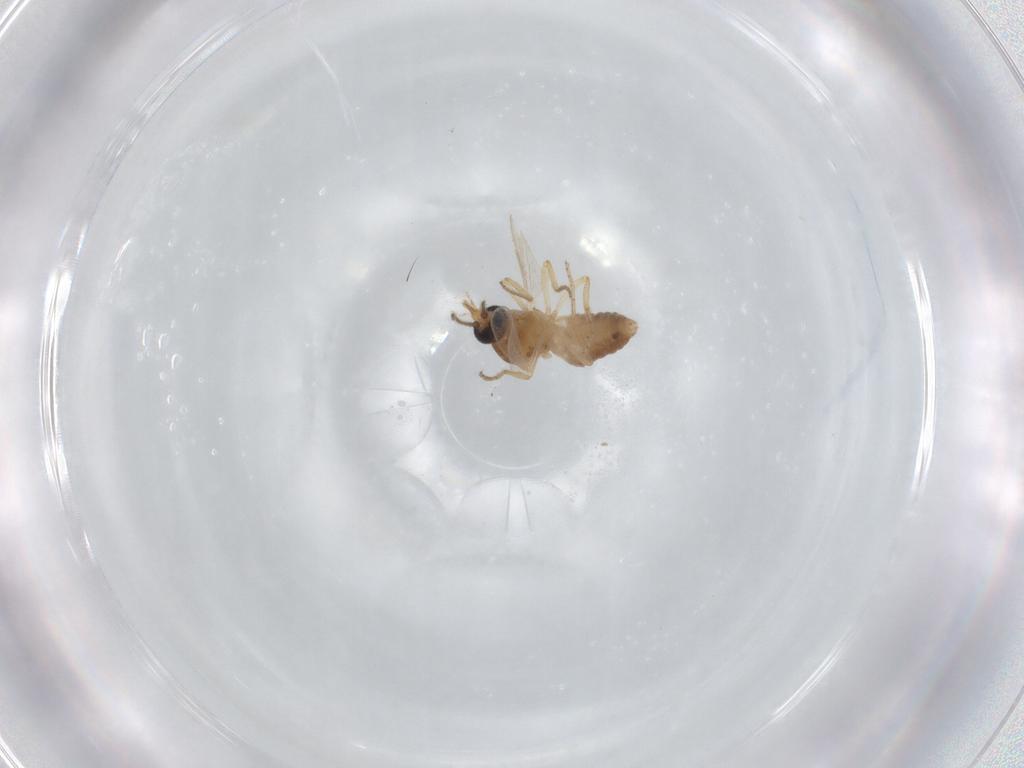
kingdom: Animalia
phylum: Arthropoda
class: Insecta
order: Diptera
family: Ceratopogonidae
